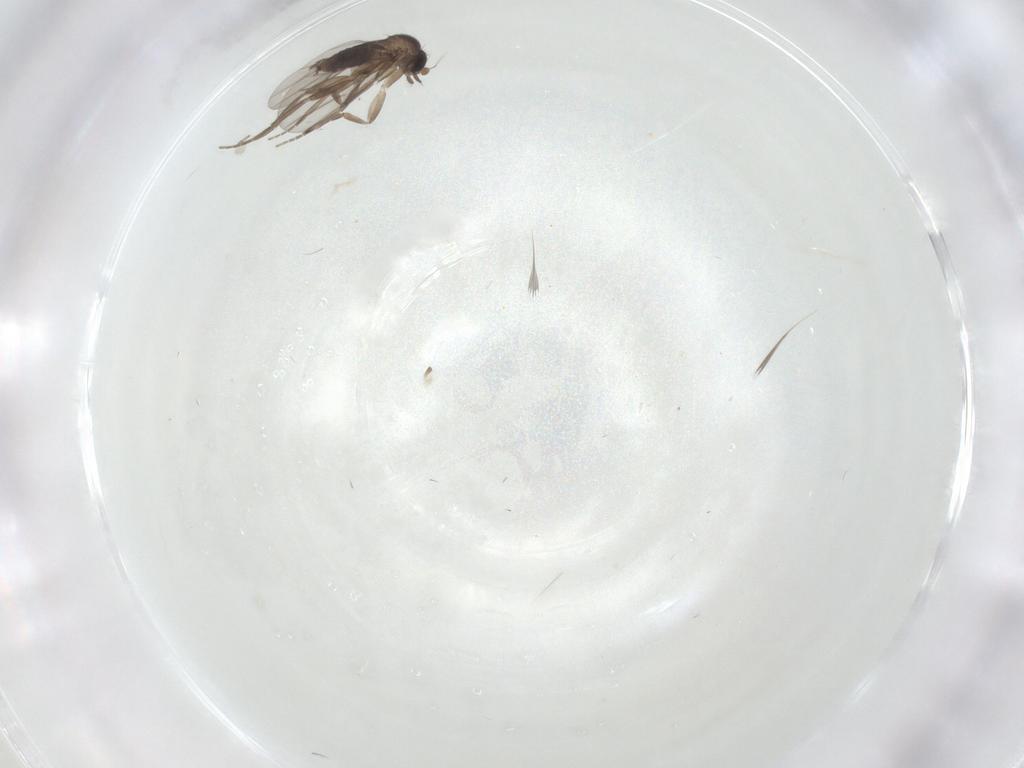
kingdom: Animalia
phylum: Arthropoda
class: Insecta
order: Diptera
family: Phoridae
